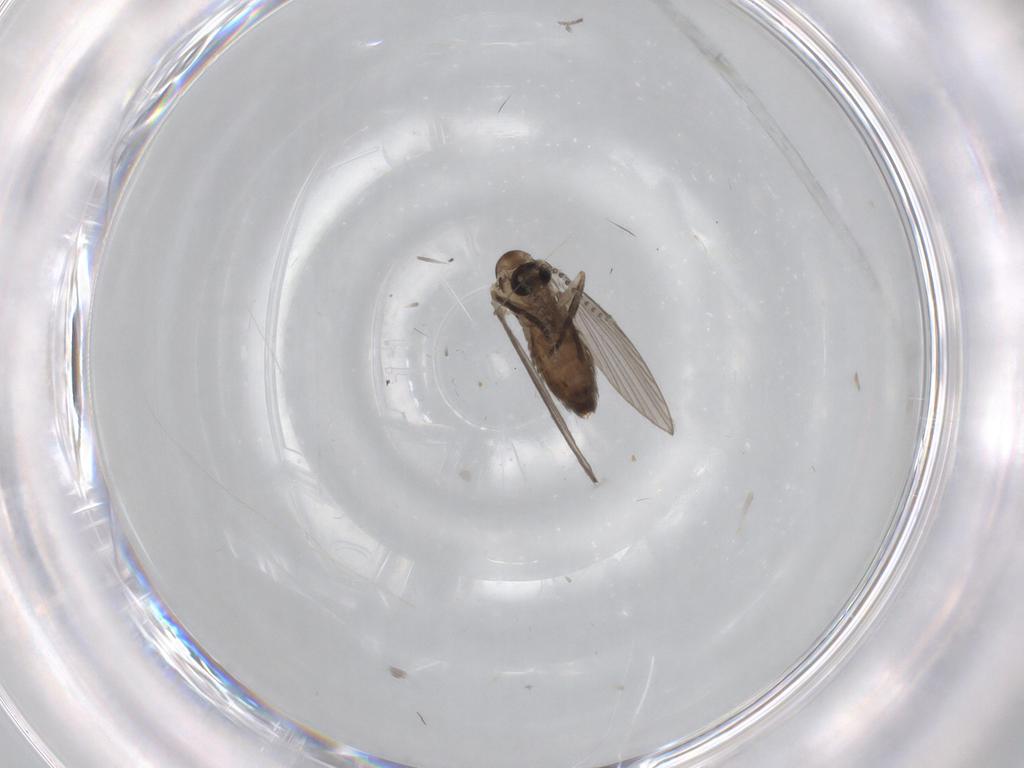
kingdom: Animalia
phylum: Arthropoda
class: Insecta
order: Diptera
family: Psychodidae
